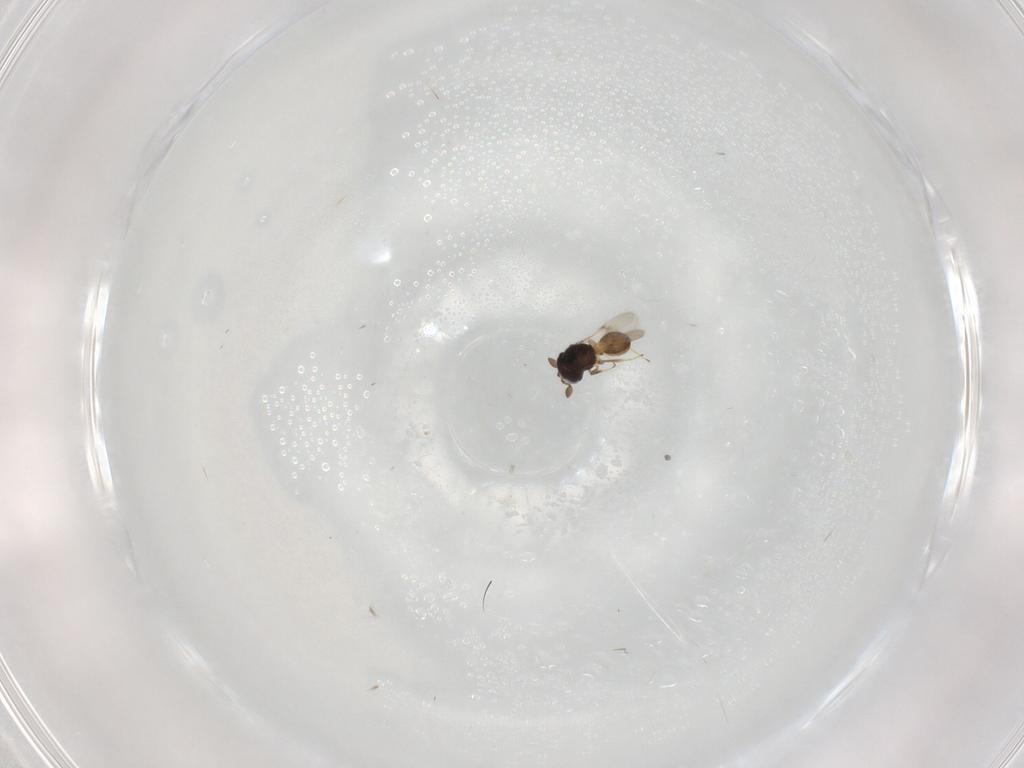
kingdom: Animalia
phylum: Arthropoda
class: Insecta
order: Hymenoptera
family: Scelionidae
